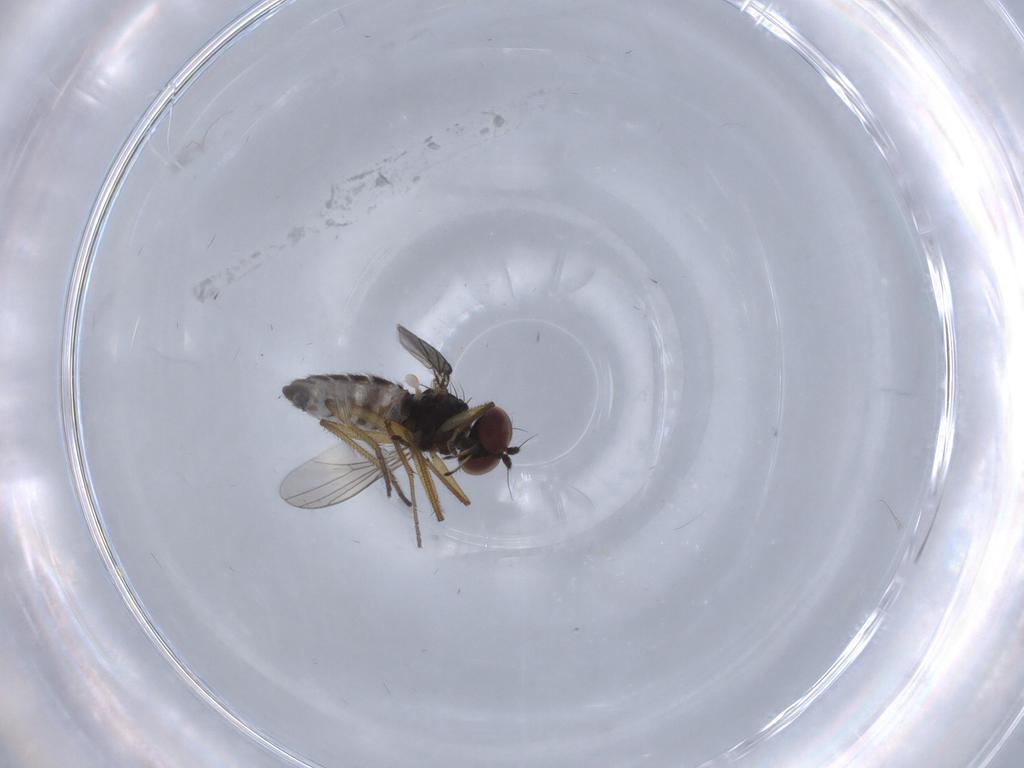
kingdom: Animalia
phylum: Arthropoda
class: Insecta
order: Diptera
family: Dolichopodidae
